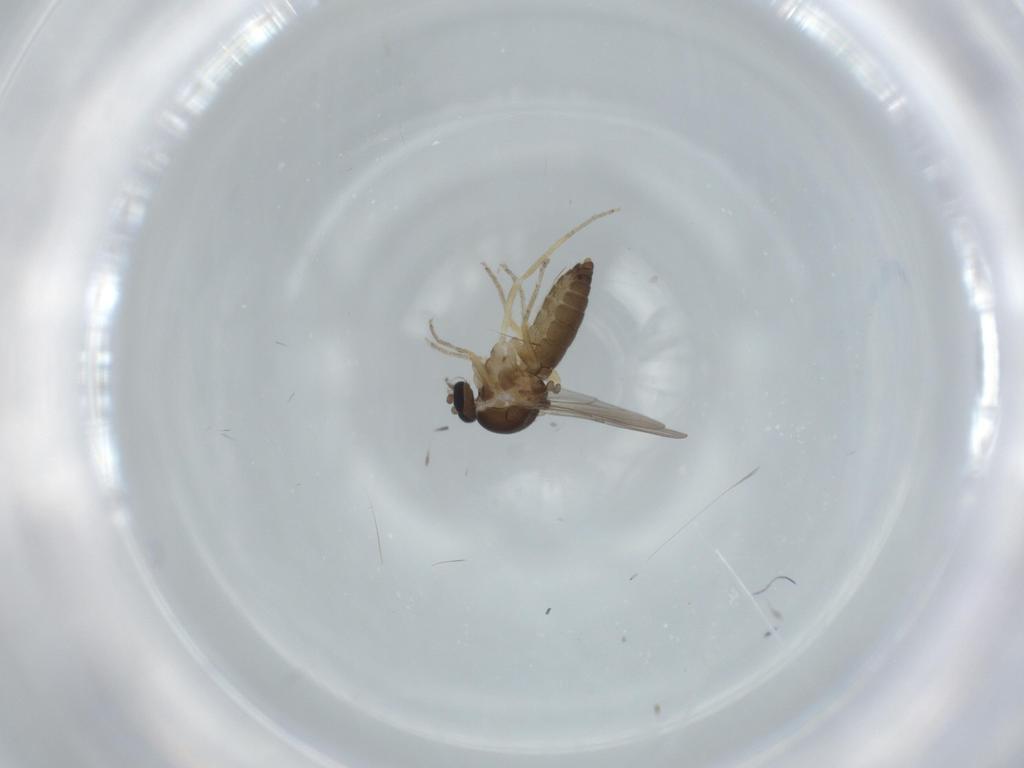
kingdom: Animalia
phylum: Arthropoda
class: Insecta
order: Diptera
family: Ceratopogonidae
